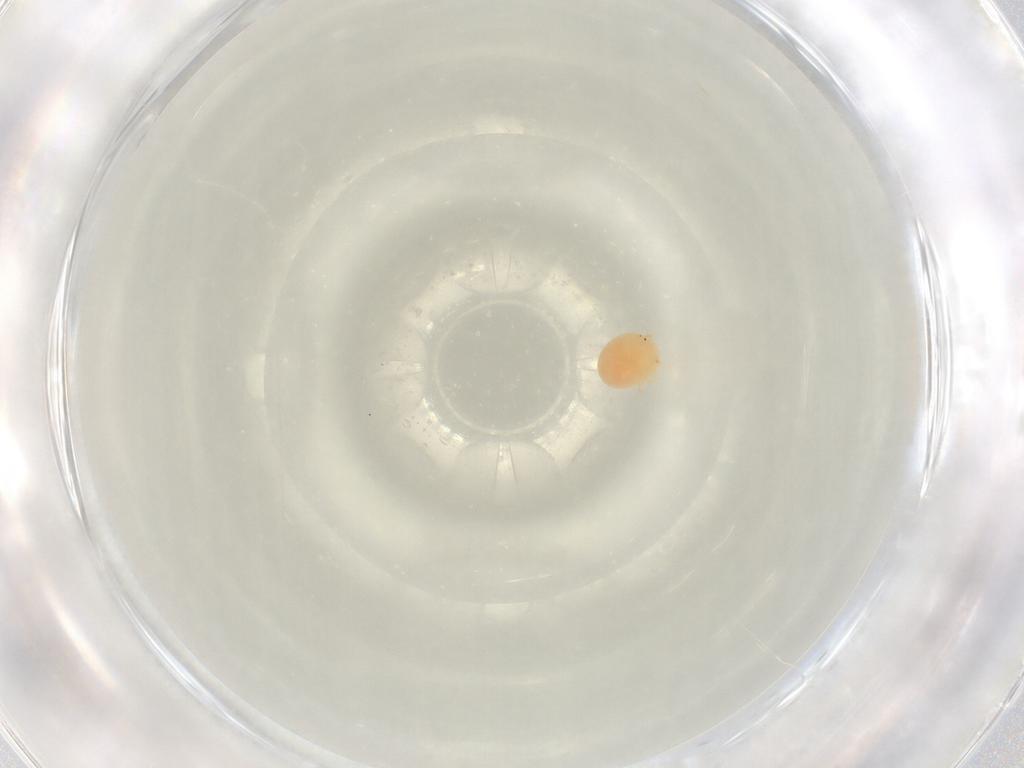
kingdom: Animalia
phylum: Arthropoda
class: Arachnida
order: Trombidiformes
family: Hydryphantidae
